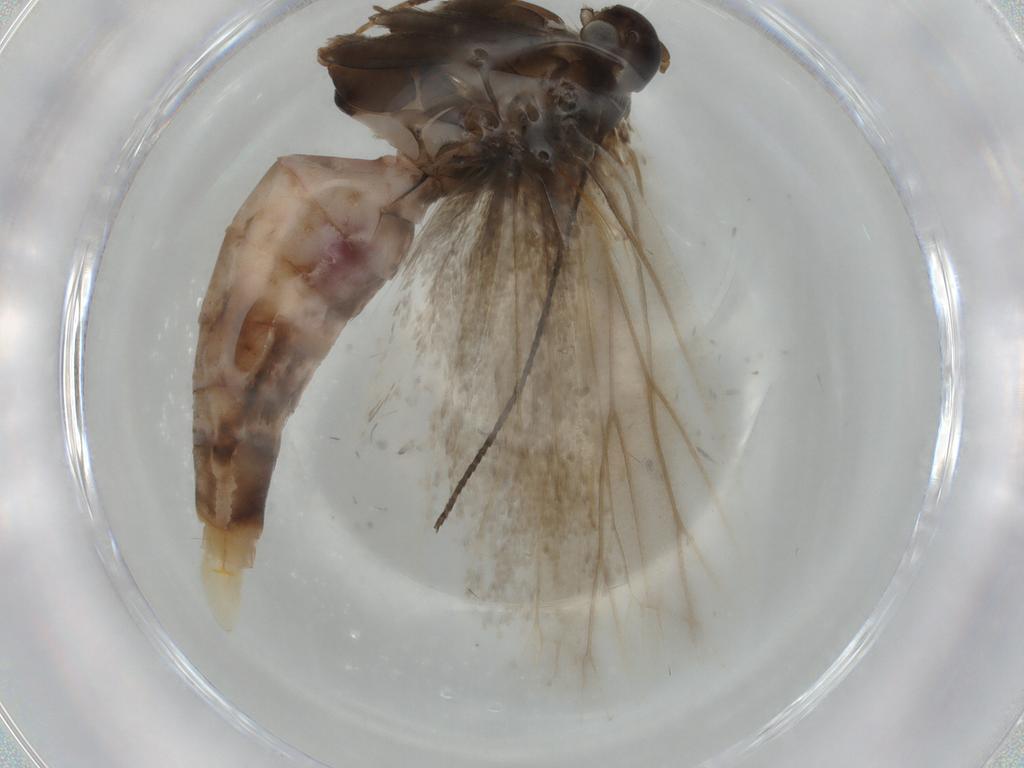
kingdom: Animalia
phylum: Arthropoda
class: Insecta
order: Lepidoptera
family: Gelechiidae
